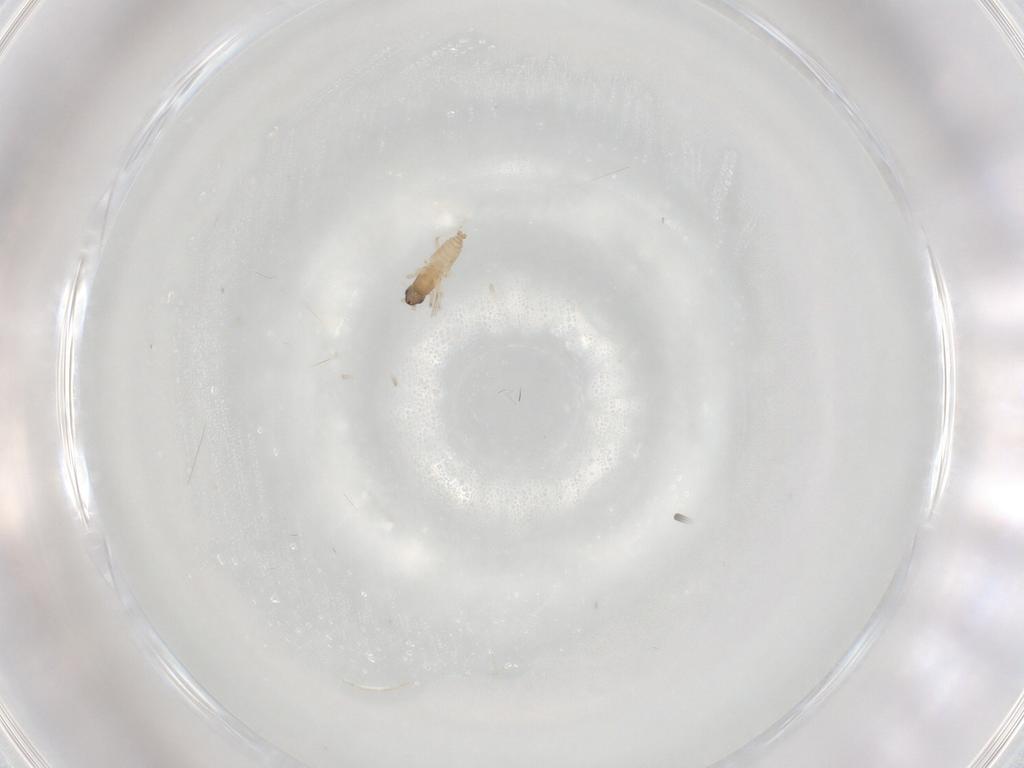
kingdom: Animalia
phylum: Arthropoda
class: Insecta
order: Diptera
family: Cecidomyiidae
